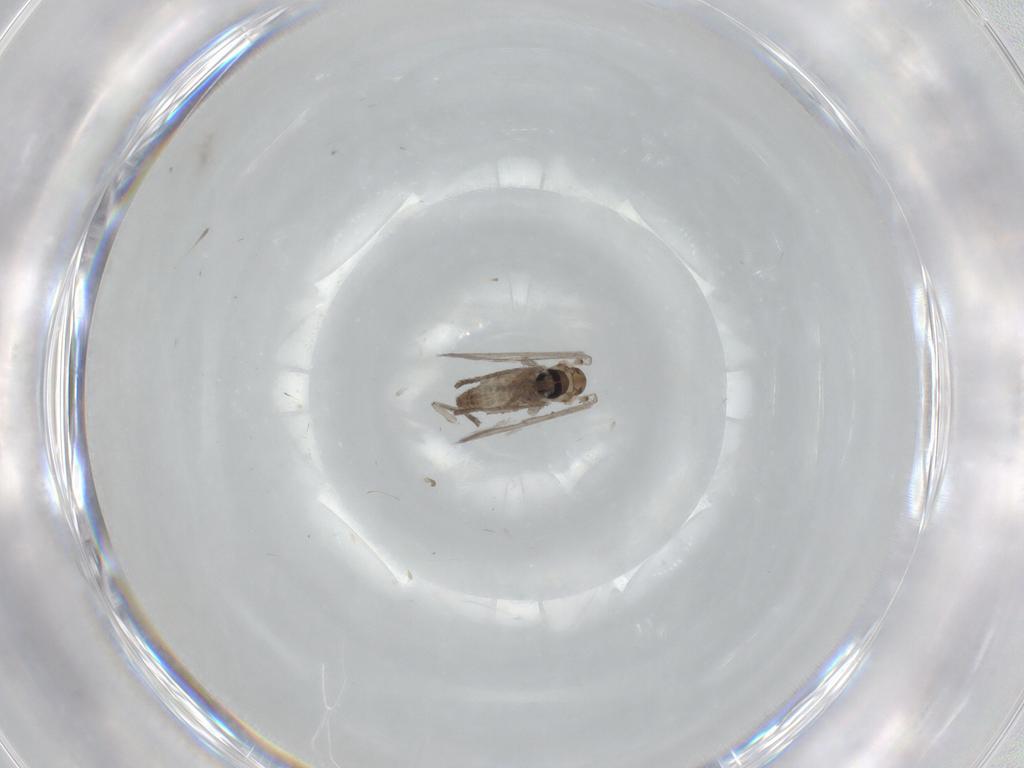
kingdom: Animalia
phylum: Arthropoda
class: Insecta
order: Diptera
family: Psychodidae
